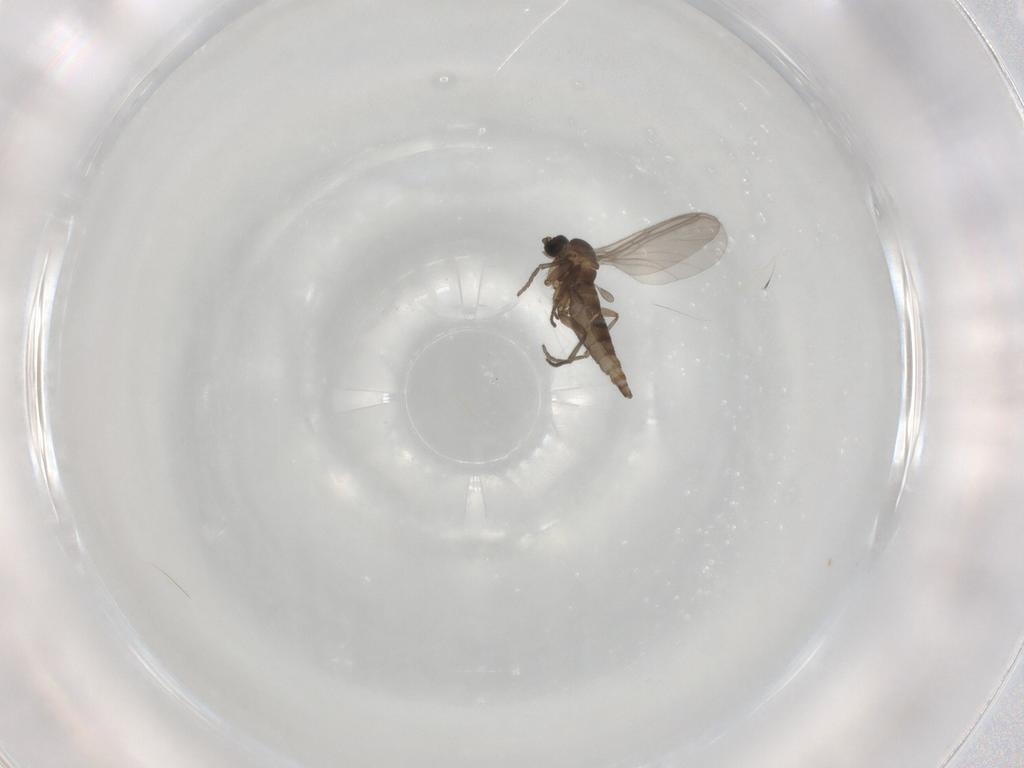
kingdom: Animalia
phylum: Arthropoda
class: Insecta
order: Diptera
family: Sciaridae
